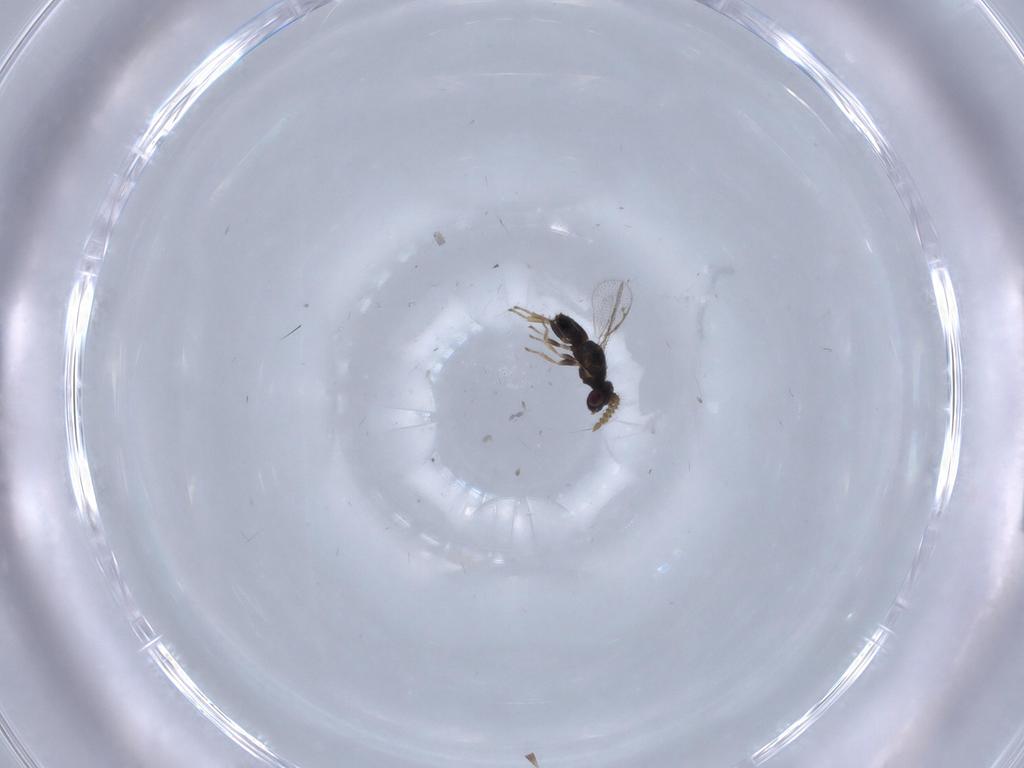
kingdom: Animalia
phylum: Arthropoda
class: Insecta
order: Hymenoptera
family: Pirenidae
